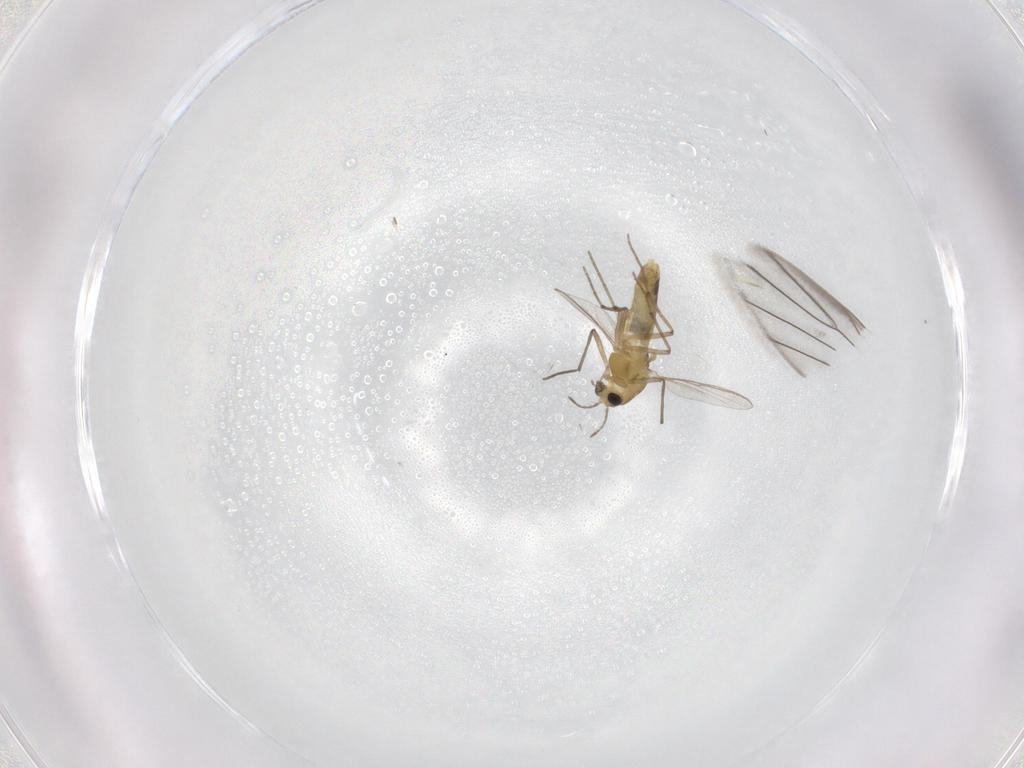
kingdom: Animalia
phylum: Arthropoda
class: Insecta
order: Diptera
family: Chironomidae
